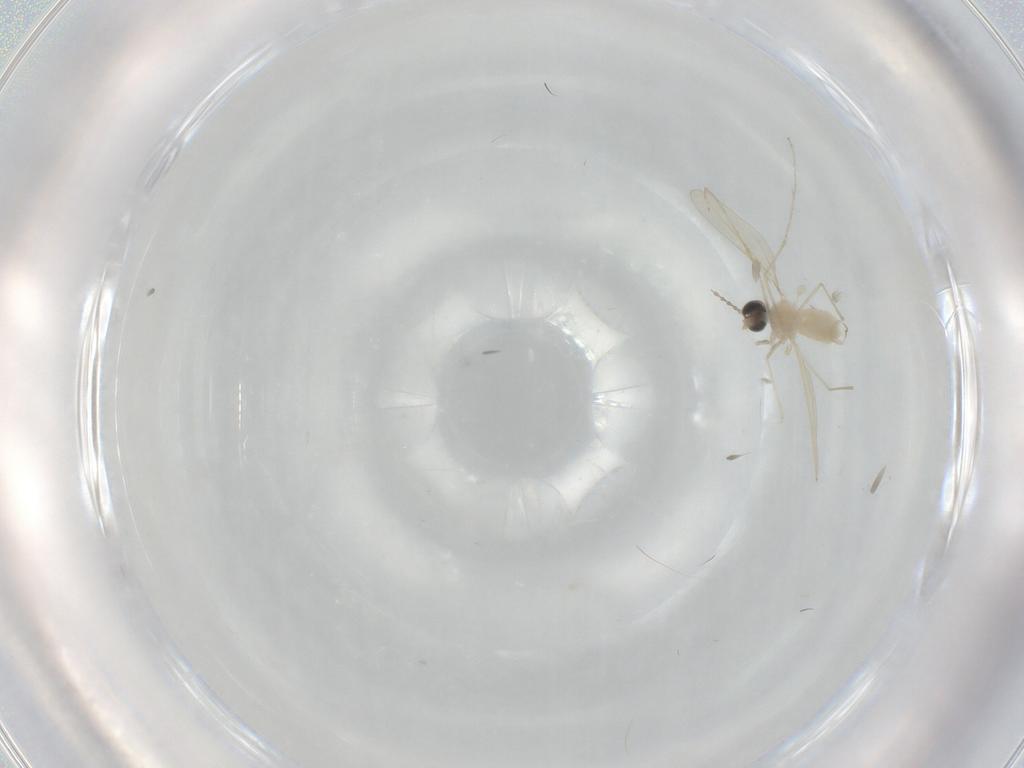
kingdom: Animalia
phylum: Arthropoda
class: Insecta
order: Diptera
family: Cecidomyiidae
